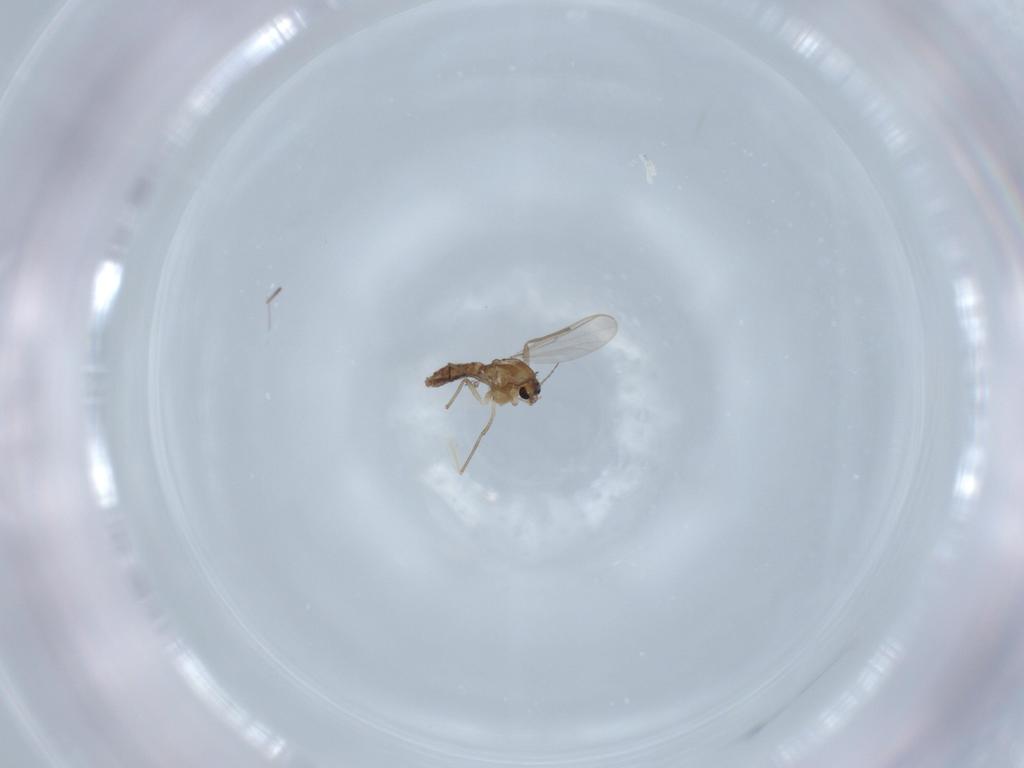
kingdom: Animalia
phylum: Arthropoda
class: Insecta
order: Diptera
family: Chironomidae
